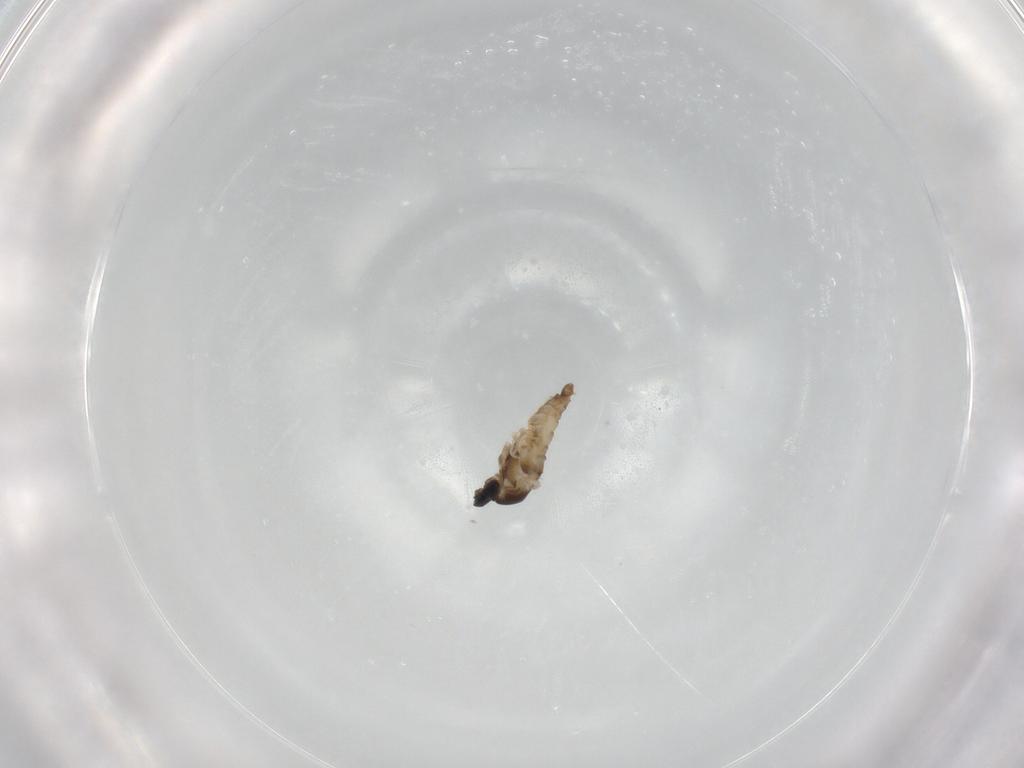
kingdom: Animalia
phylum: Arthropoda
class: Insecta
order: Diptera
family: Cecidomyiidae
